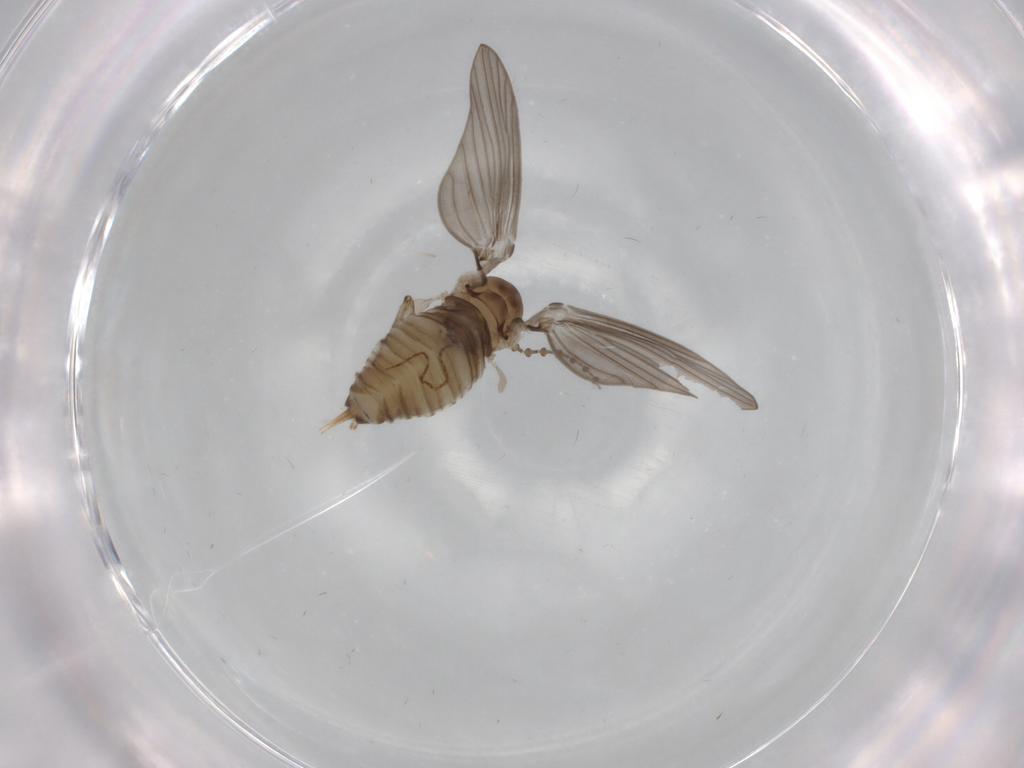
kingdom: Animalia
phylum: Arthropoda
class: Insecta
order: Diptera
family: Psychodidae
